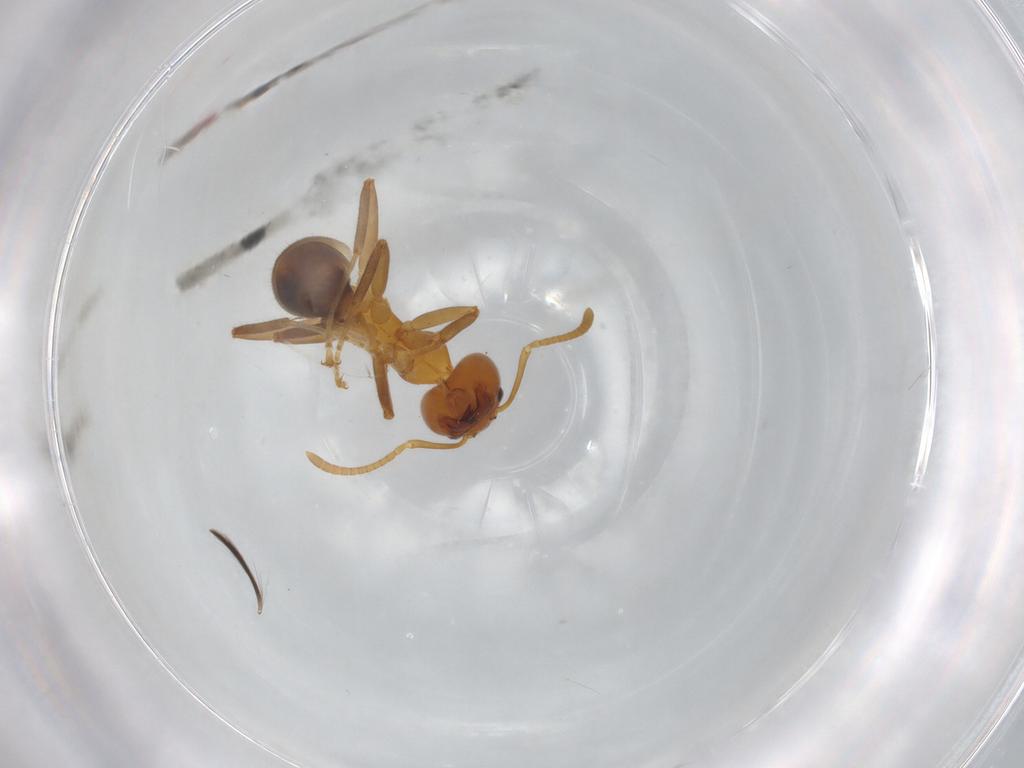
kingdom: Animalia
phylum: Arthropoda
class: Insecta
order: Hymenoptera
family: Formicidae
